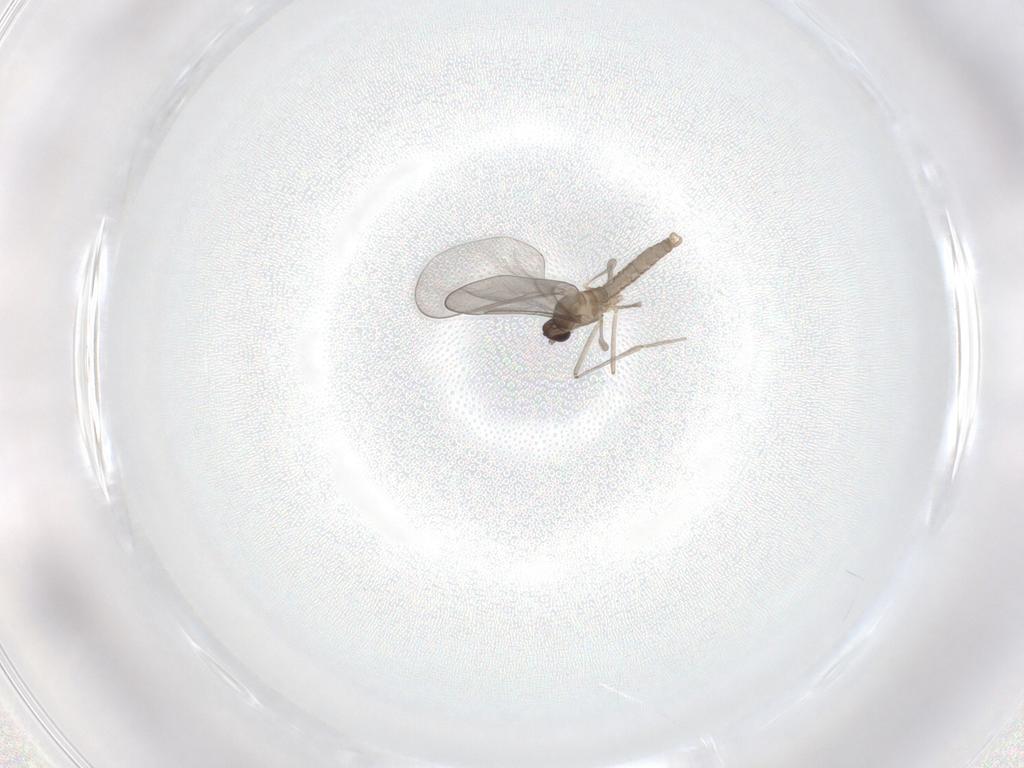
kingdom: Animalia
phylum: Arthropoda
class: Insecta
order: Diptera
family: Cecidomyiidae
